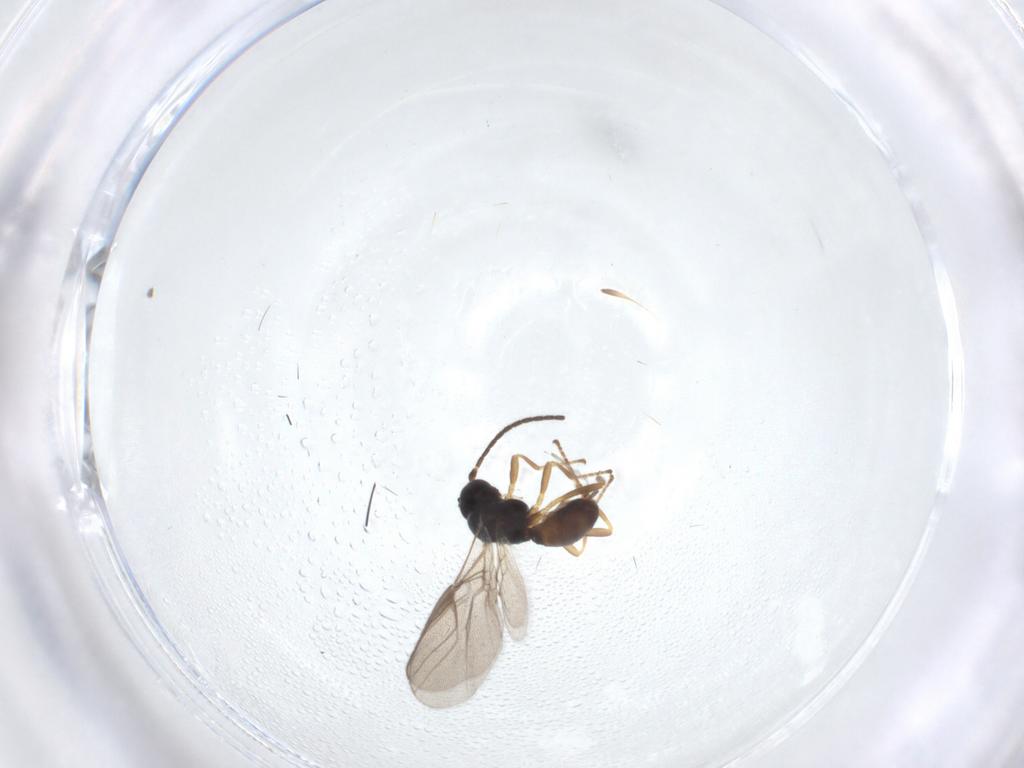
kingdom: Animalia
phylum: Arthropoda
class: Insecta
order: Hymenoptera
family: Braconidae
